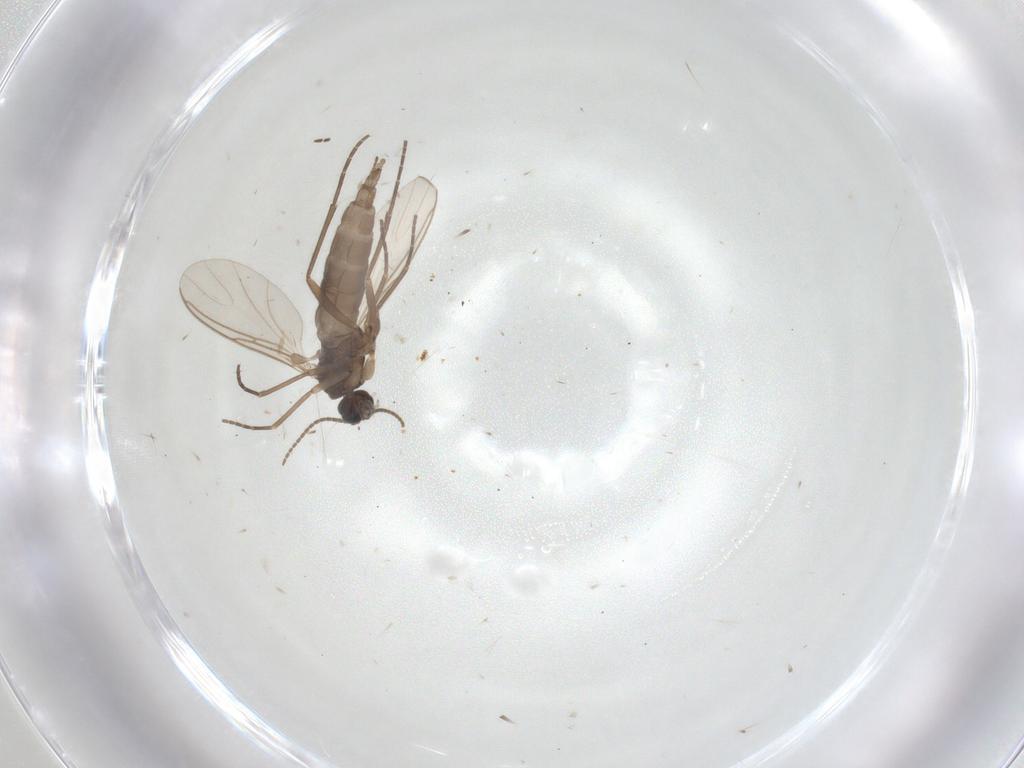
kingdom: Animalia
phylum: Arthropoda
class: Insecta
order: Diptera
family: Sciaridae
